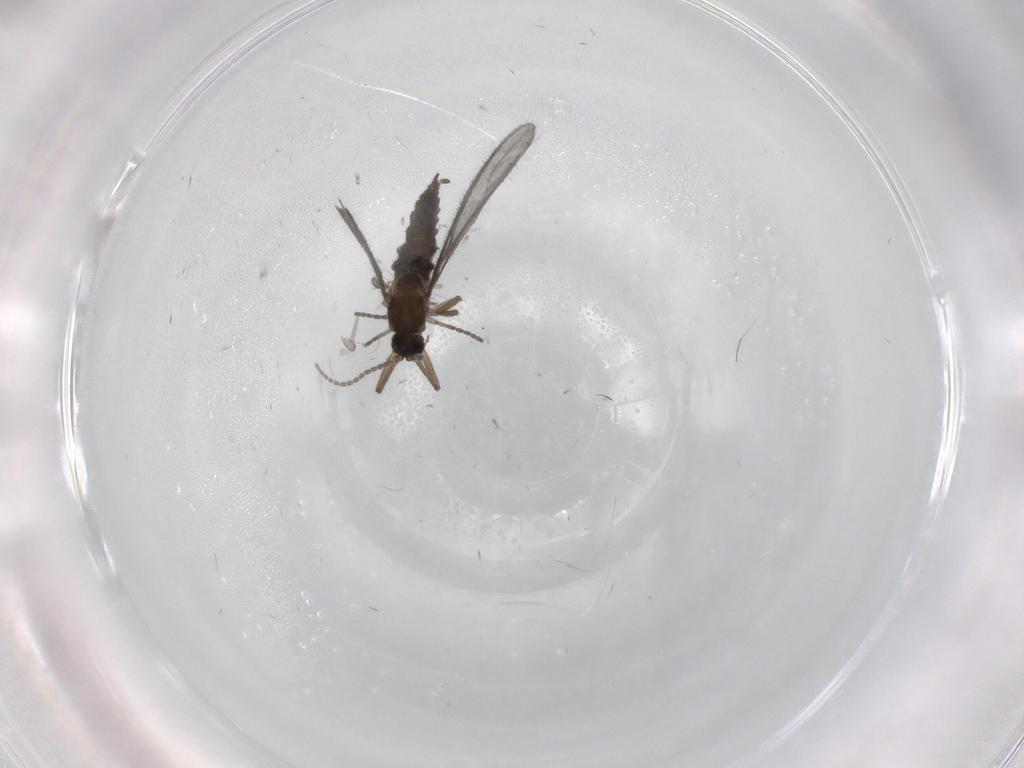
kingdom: Animalia
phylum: Arthropoda
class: Insecta
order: Diptera
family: Sciaridae
